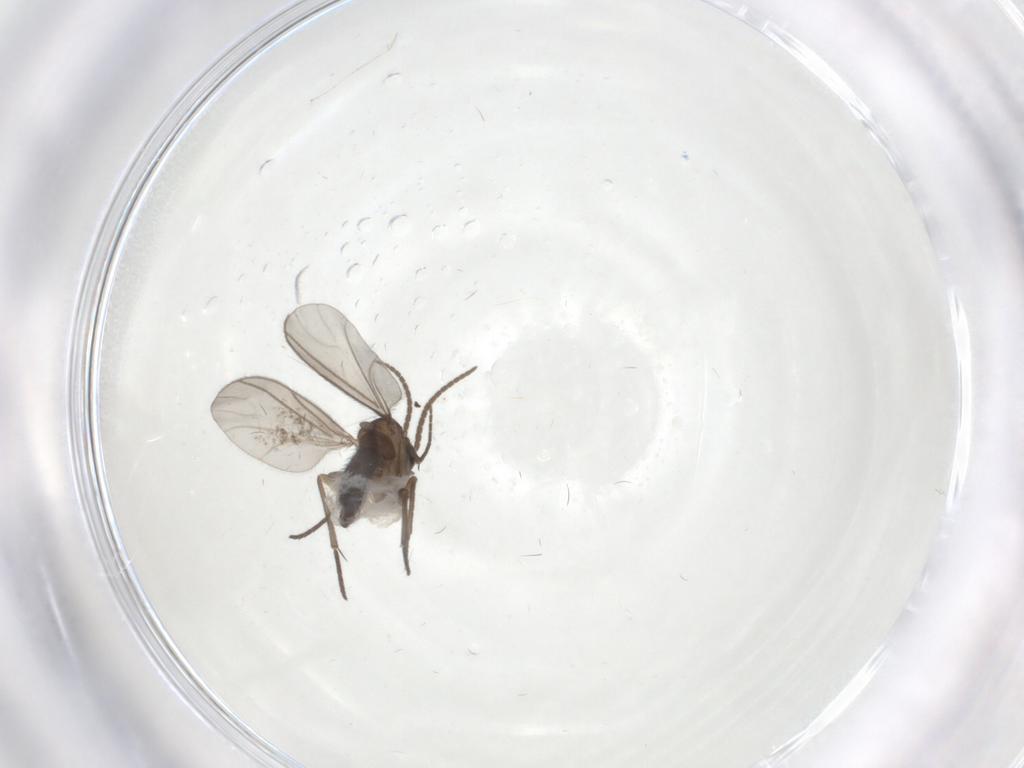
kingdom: Animalia
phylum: Arthropoda
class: Insecta
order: Diptera
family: Sciaridae
